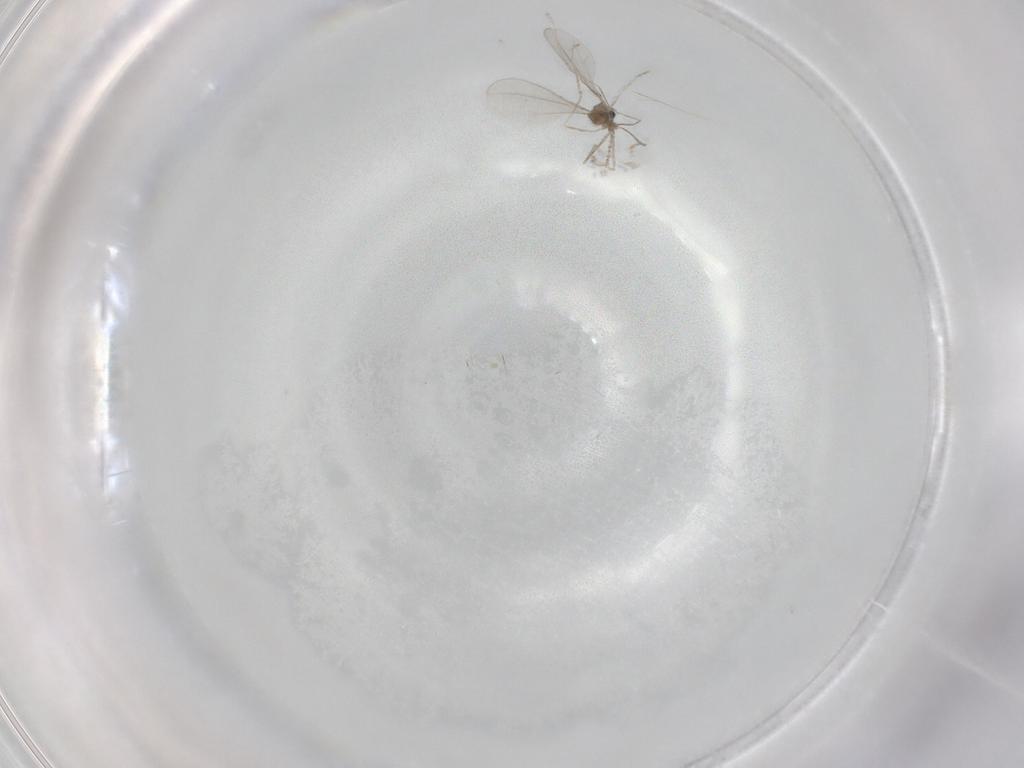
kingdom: Animalia
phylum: Arthropoda
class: Insecta
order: Diptera
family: Cecidomyiidae
